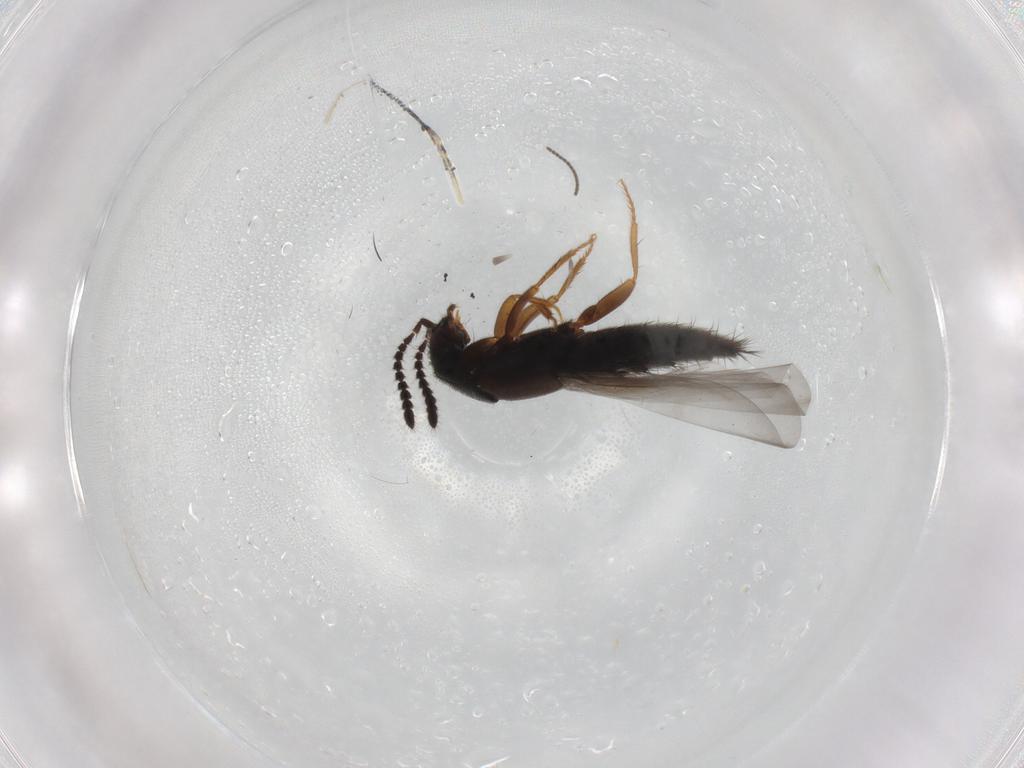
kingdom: Animalia
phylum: Arthropoda
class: Insecta
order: Coleoptera
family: Staphylinidae
